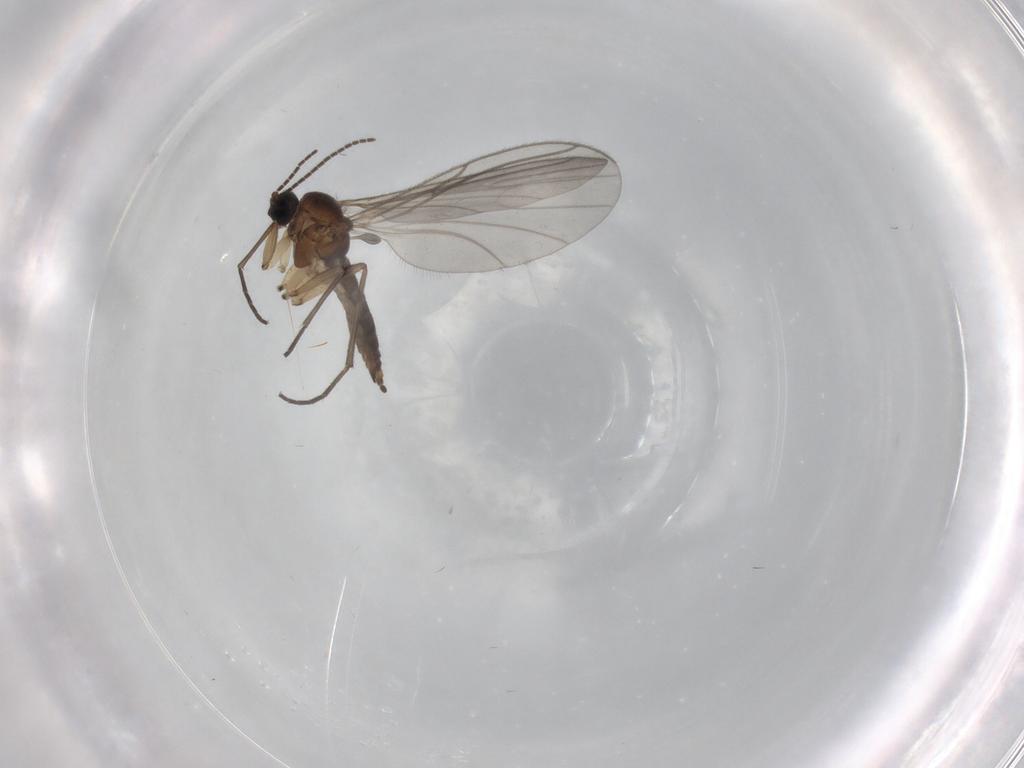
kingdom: Animalia
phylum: Arthropoda
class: Insecta
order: Diptera
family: Sciaridae
